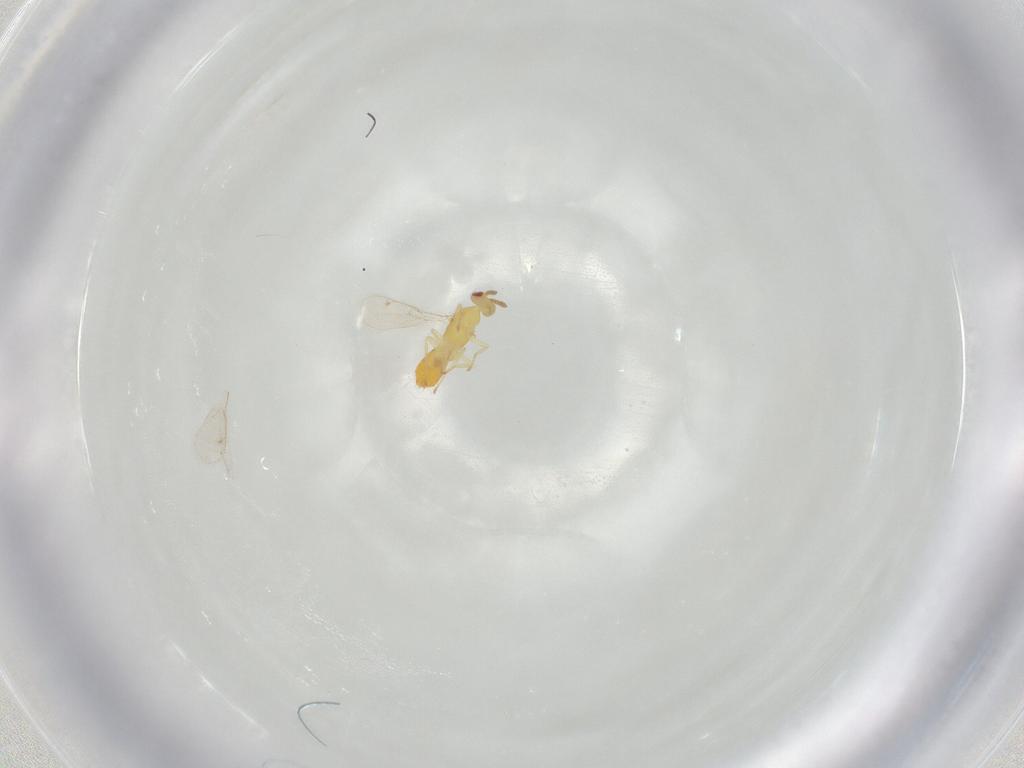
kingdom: Animalia
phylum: Arthropoda
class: Insecta
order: Hymenoptera
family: Eulophidae
